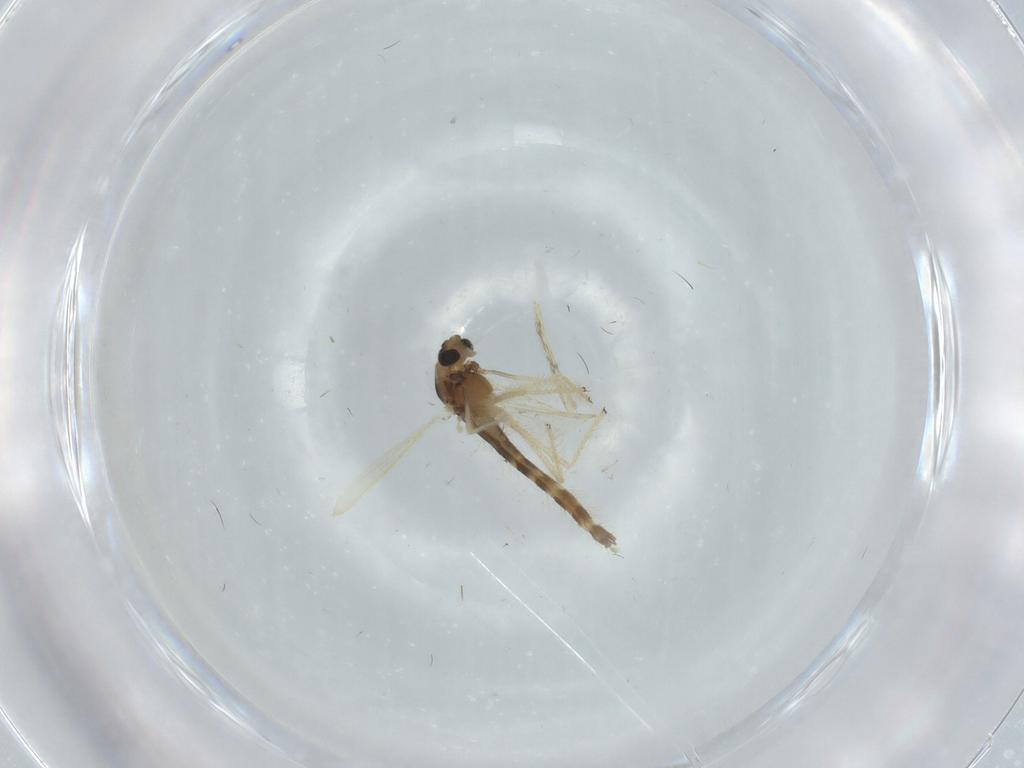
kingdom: Animalia
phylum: Arthropoda
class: Insecta
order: Diptera
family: Chironomidae
